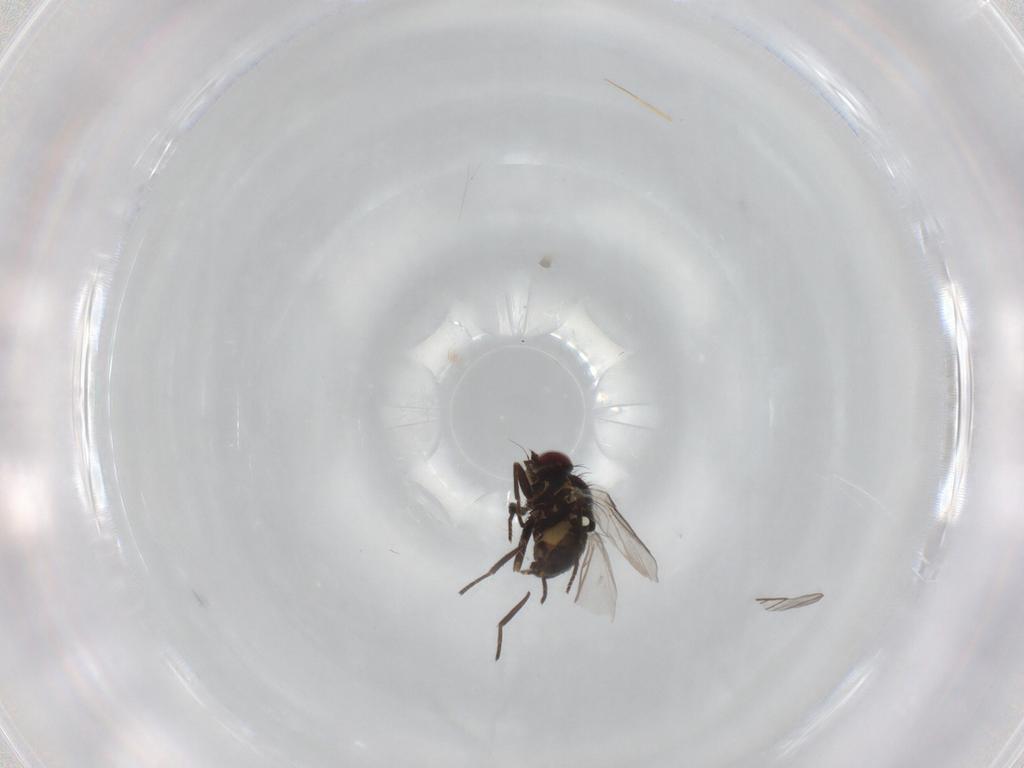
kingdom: Animalia
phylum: Arthropoda
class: Insecta
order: Diptera
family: Agromyzidae
